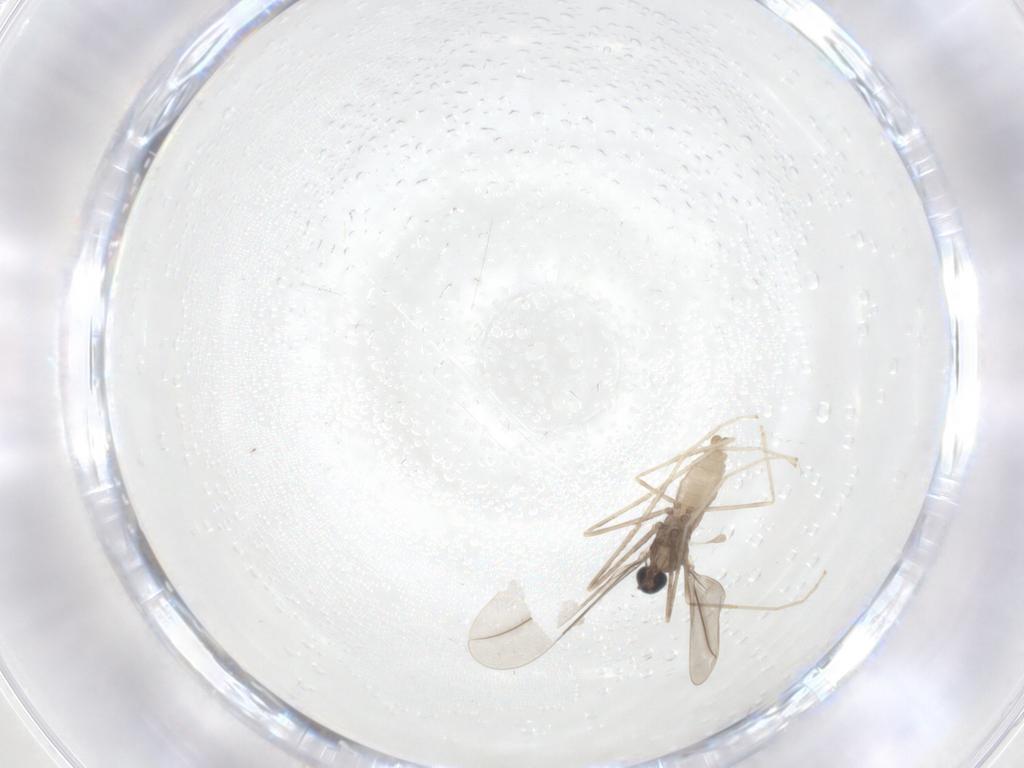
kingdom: Animalia
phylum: Arthropoda
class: Insecta
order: Diptera
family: Cecidomyiidae
